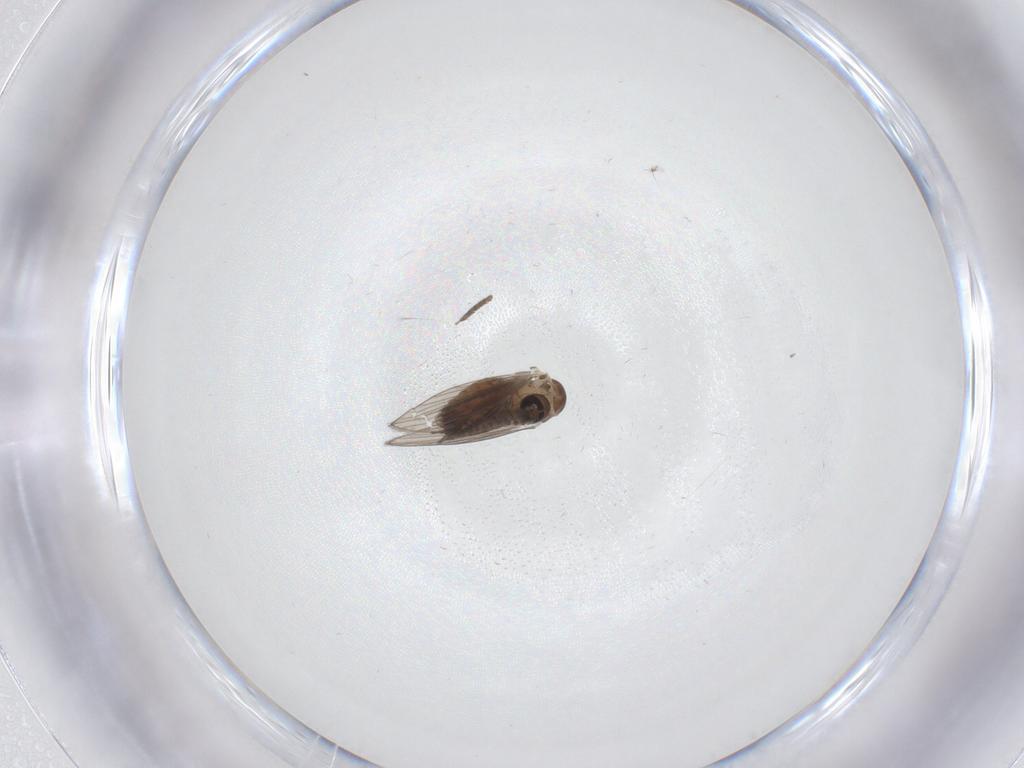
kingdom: Animalia
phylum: Arthropoda
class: Insecta
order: Diptera
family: Psychodidae
